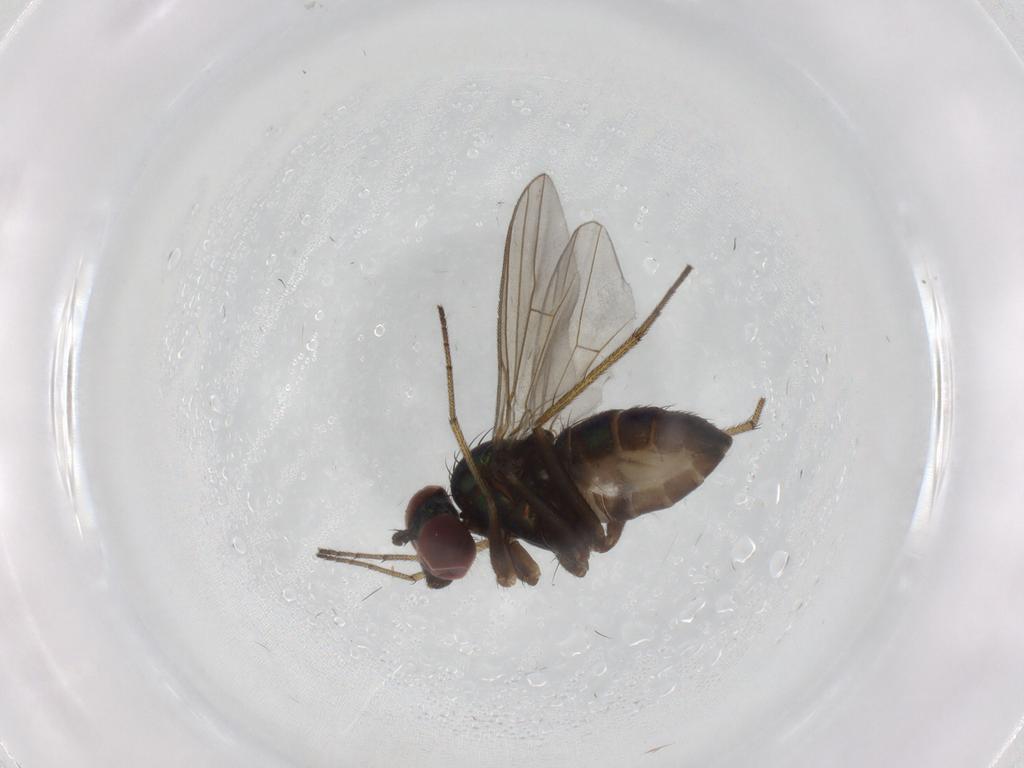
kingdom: Animalia
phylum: Arthropoda
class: Insecta
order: Diptera
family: Dolichopodidae
